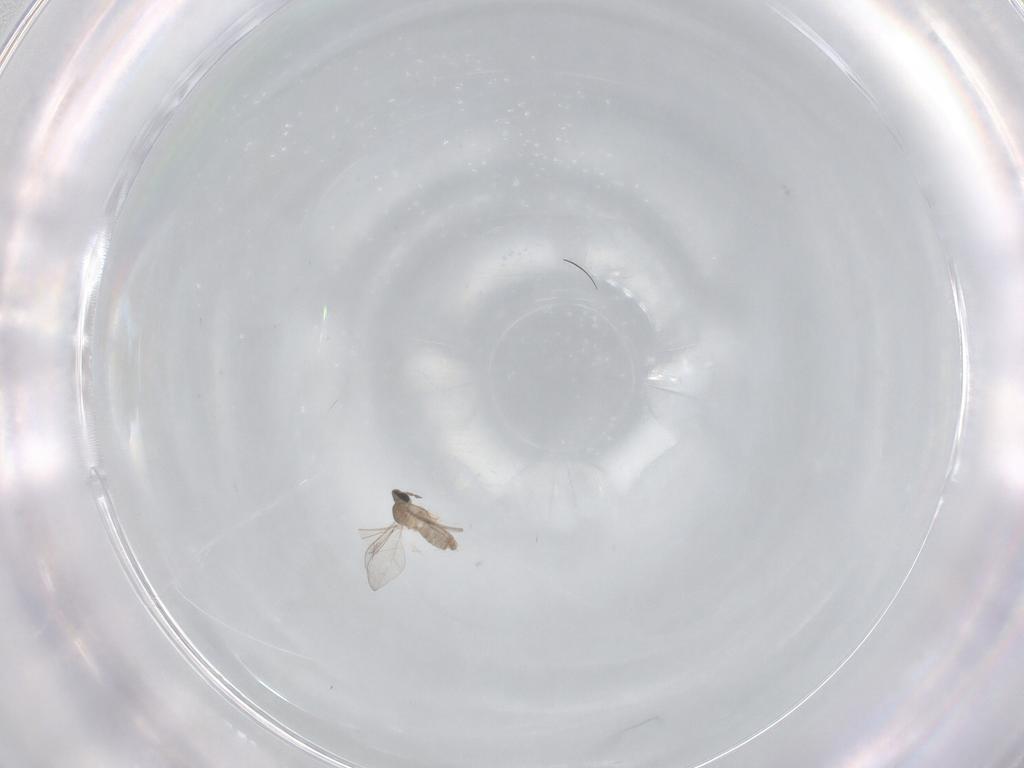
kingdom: Animalia
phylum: Arthropoda
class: Insecta
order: Diptera
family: Cecidomyiidae
